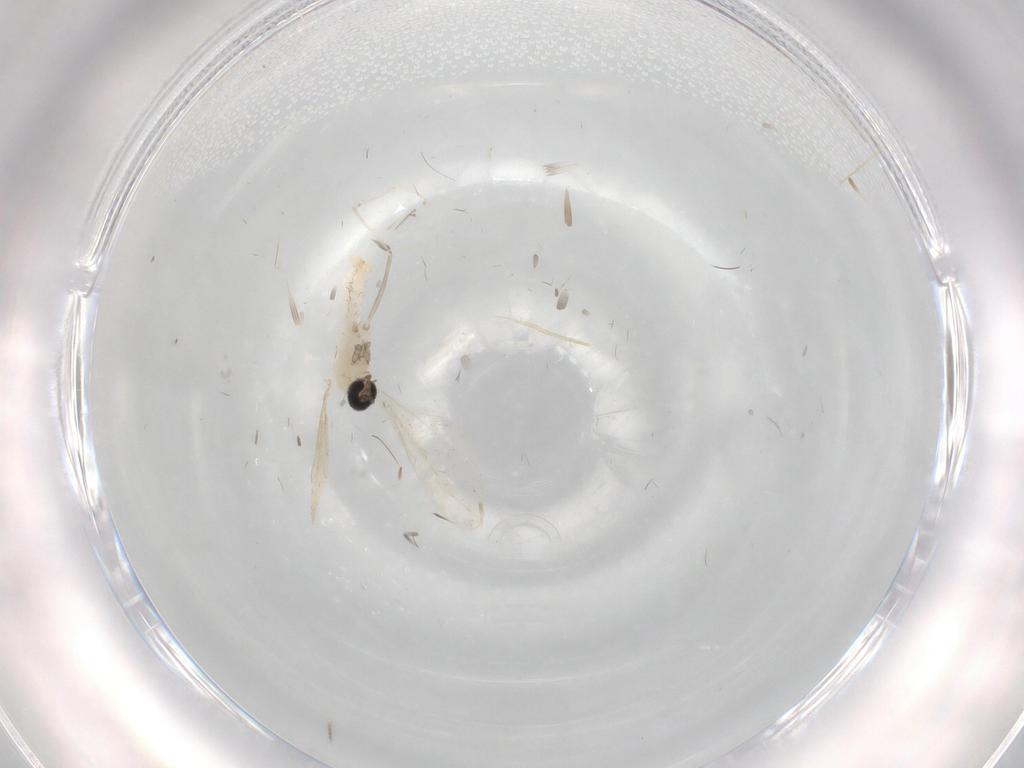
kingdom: Animalia
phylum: Arthropoda
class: Insecta
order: Diptera
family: Cecidomyiidae
